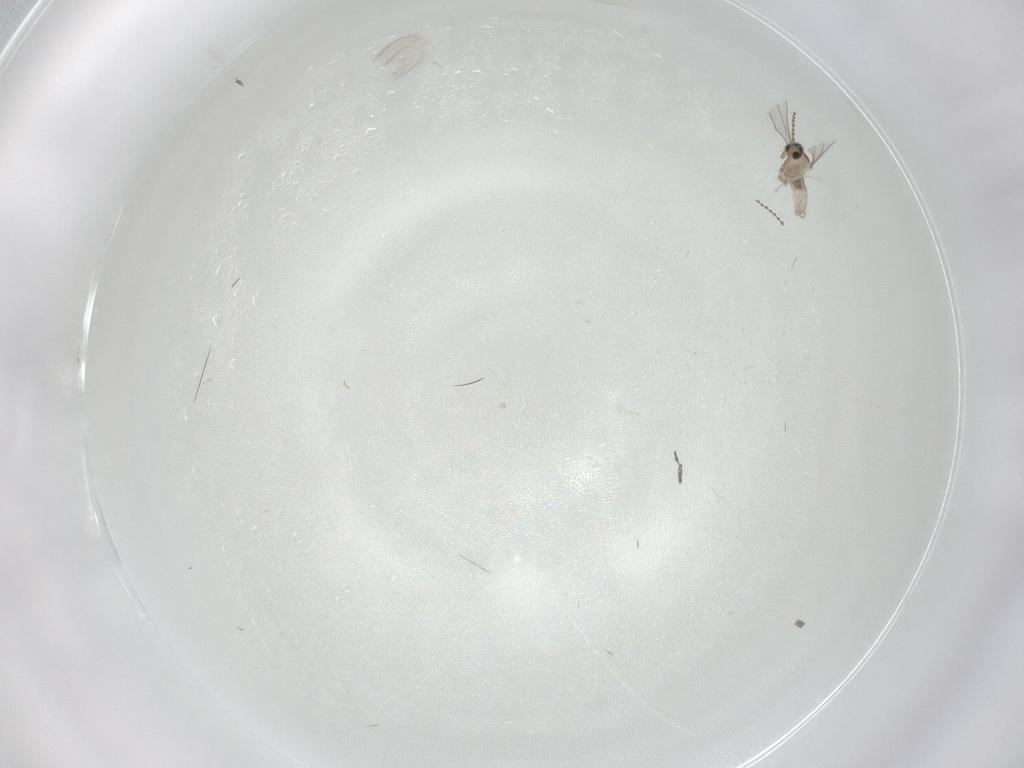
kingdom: Animalia
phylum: Arthropoda
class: Insecta
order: Diptera
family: Cecidomyiidae
